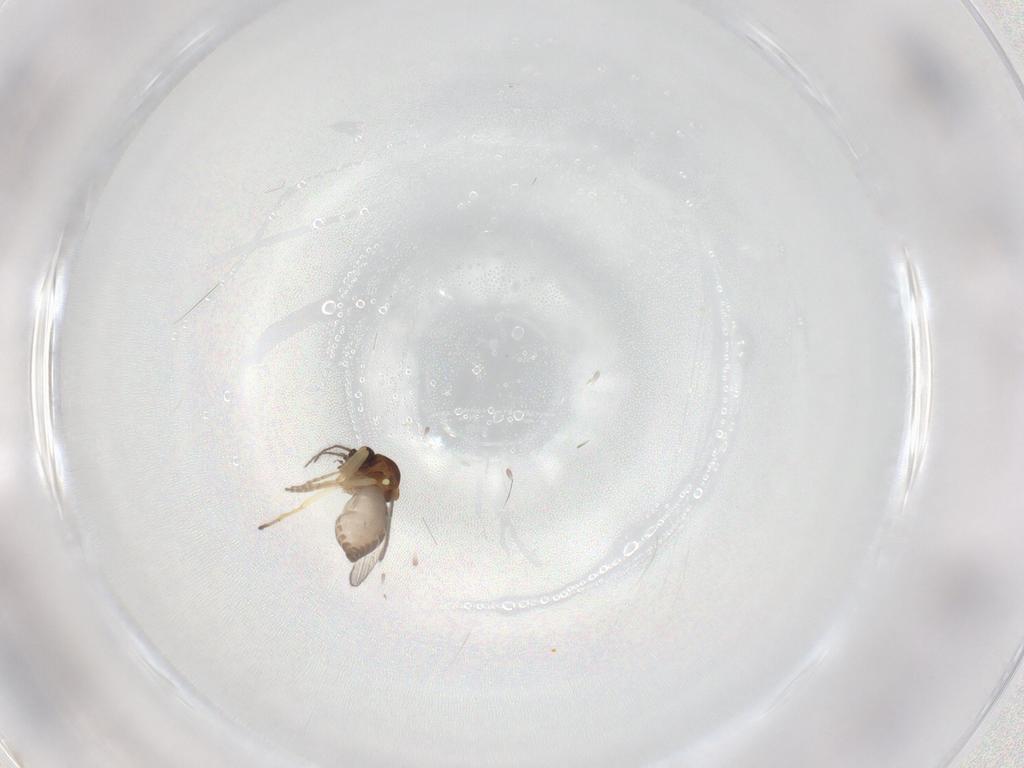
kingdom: Animalia
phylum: Arthropoda
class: Insecta
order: Diptera
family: Ceratopogonidae
